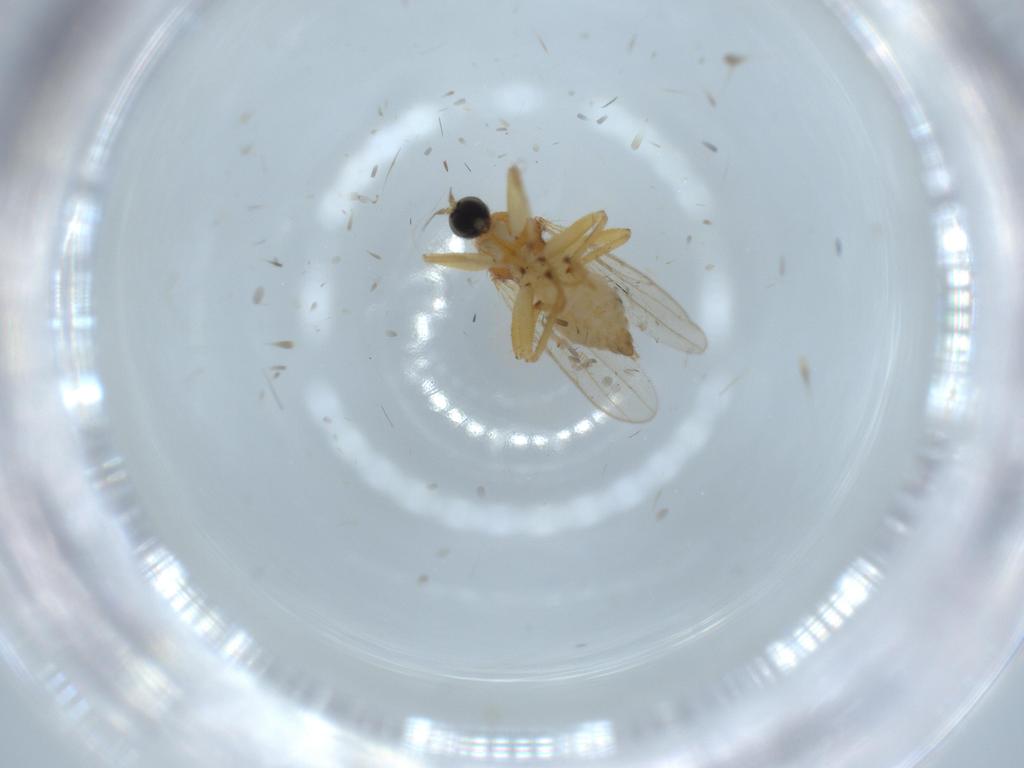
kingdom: Animalia
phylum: Arthropoda
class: Insecta
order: Diptera
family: Hybotidae
